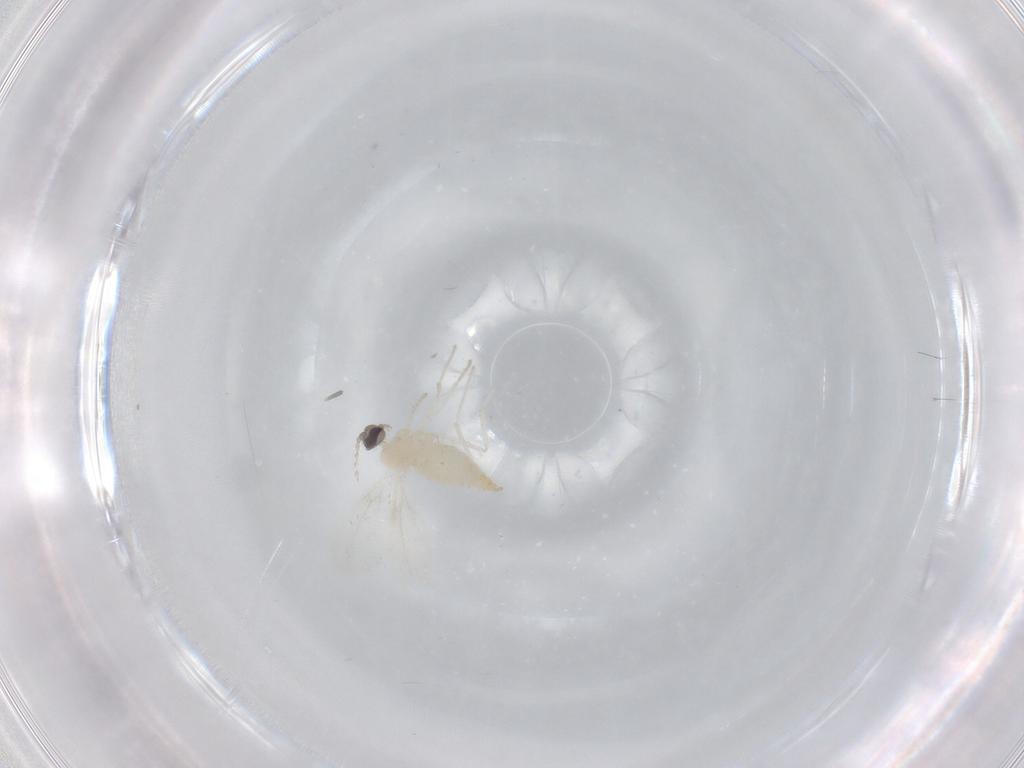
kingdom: Animalia
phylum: Arthropoda
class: Insecta
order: Diptera
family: Cecidomyiidae
